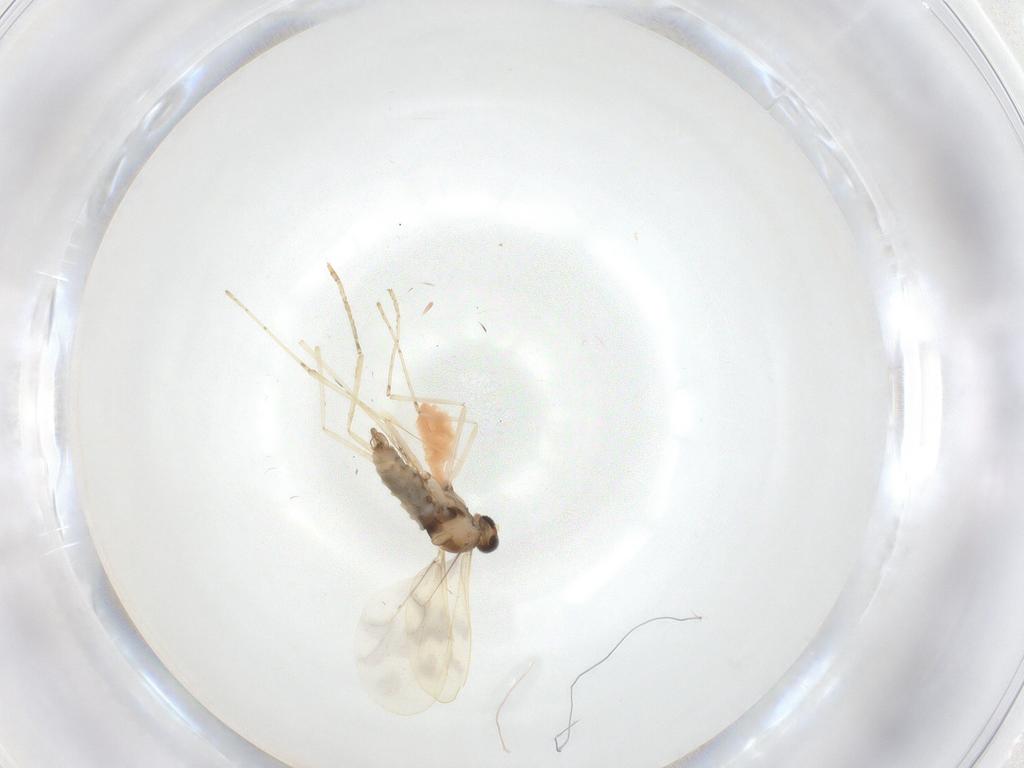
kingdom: Animalia
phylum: Arthropoda
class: Insecta
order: Diptera
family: Cecidomyiidae
